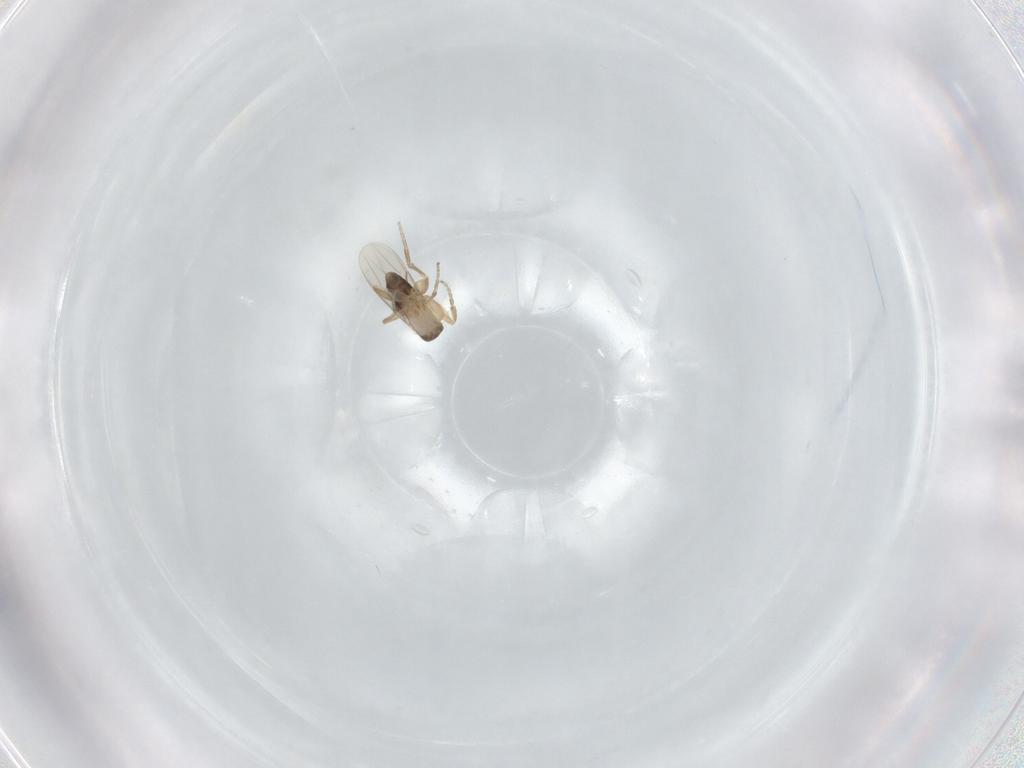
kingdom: Animalia
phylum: Arthropoda
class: Insecta
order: Diptera
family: Phoridae
